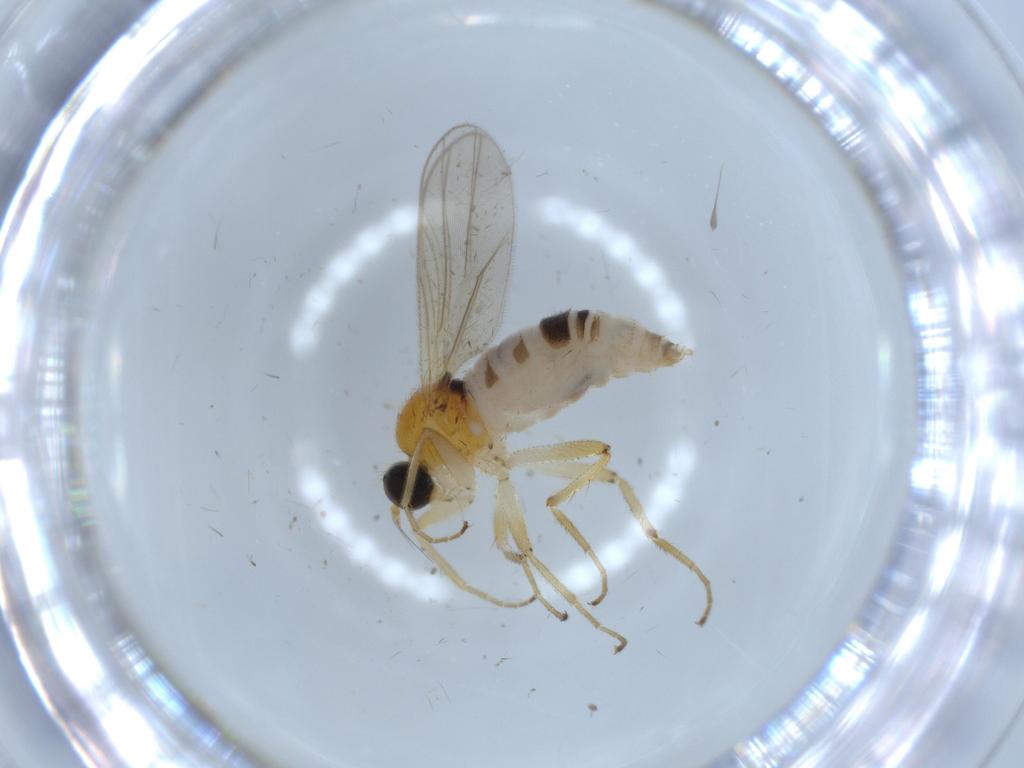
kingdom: Animalia
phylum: Arthropoda
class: Insecta
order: Diptera
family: Hybotidae
